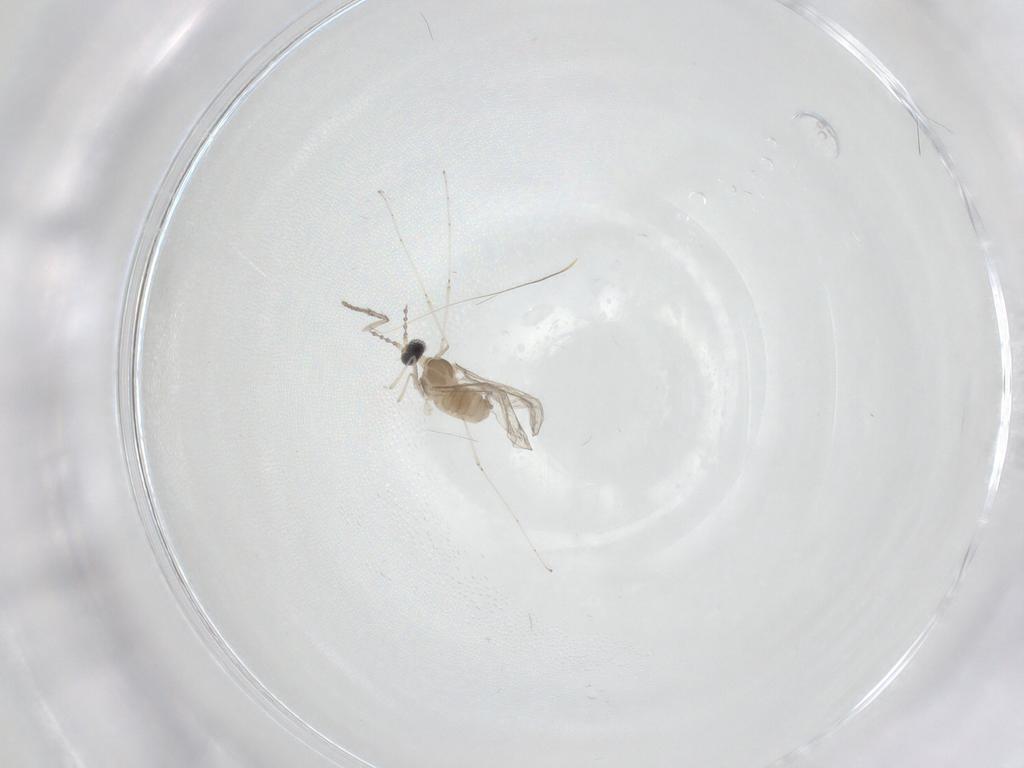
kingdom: Animalia
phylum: Arthropoda
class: Insecta
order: Diptera
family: Cecidomyiidae
